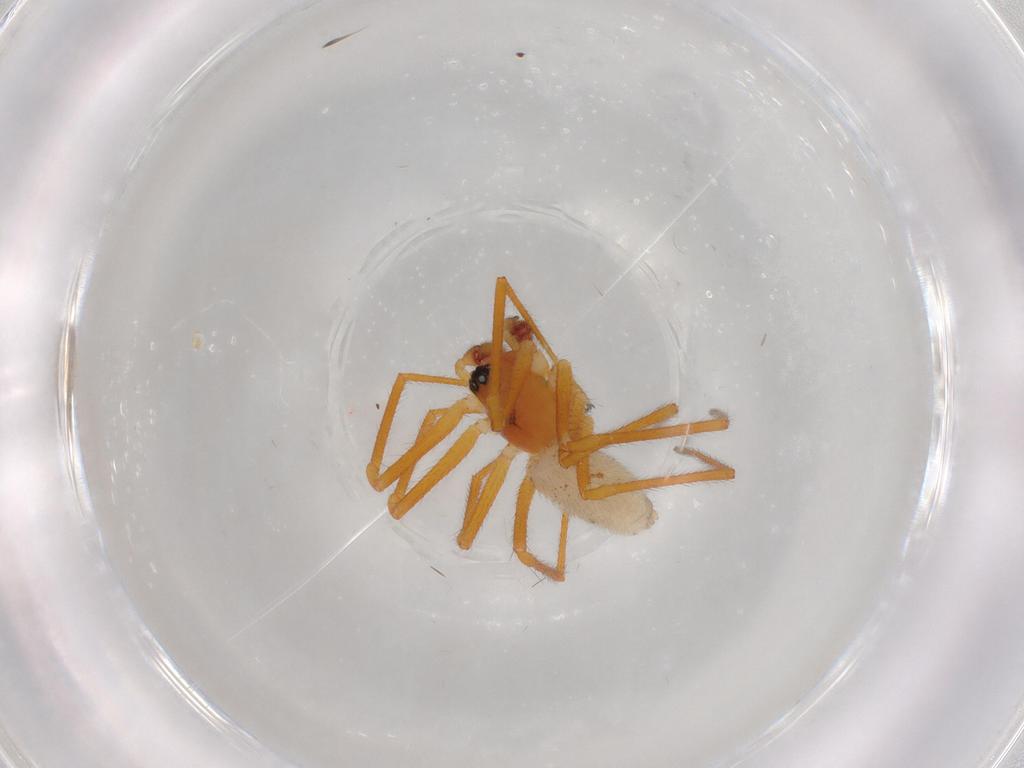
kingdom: Animalia
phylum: Arthropoda
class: Arachnida
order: Araneae
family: Linyphiidae
